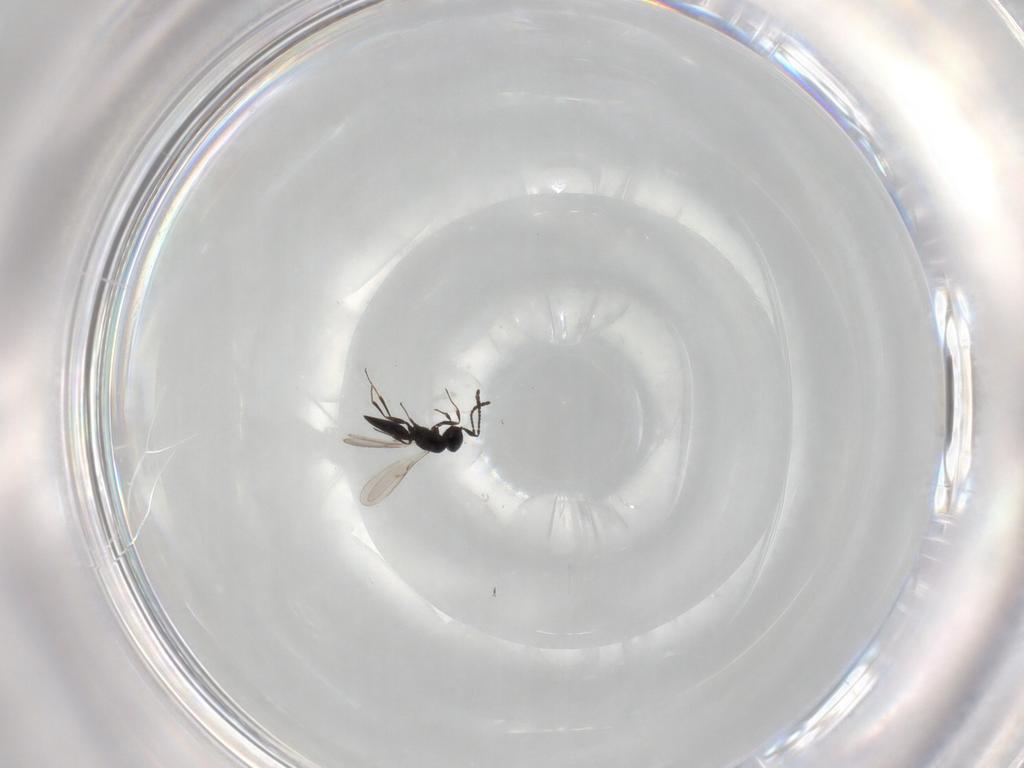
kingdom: Animalia
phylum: Arthropoda
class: Insecta
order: Hymenoptera
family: Scelionidae
